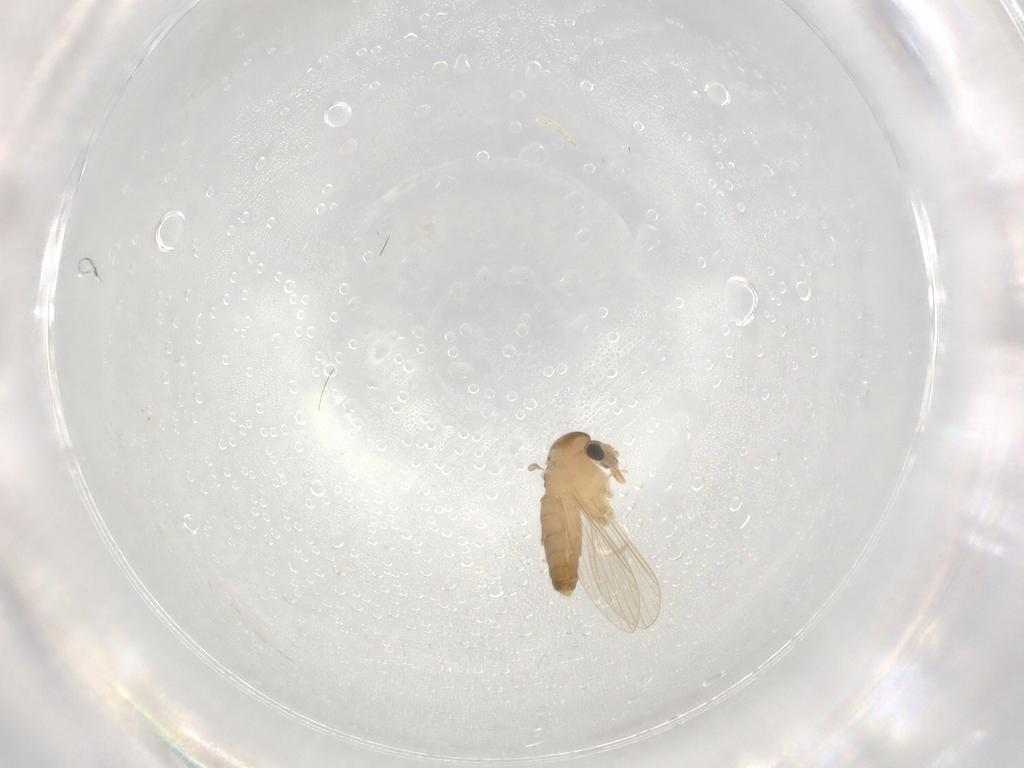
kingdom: Animalia
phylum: Arthropoda
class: Insecta
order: Diptera
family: Psychodidae
